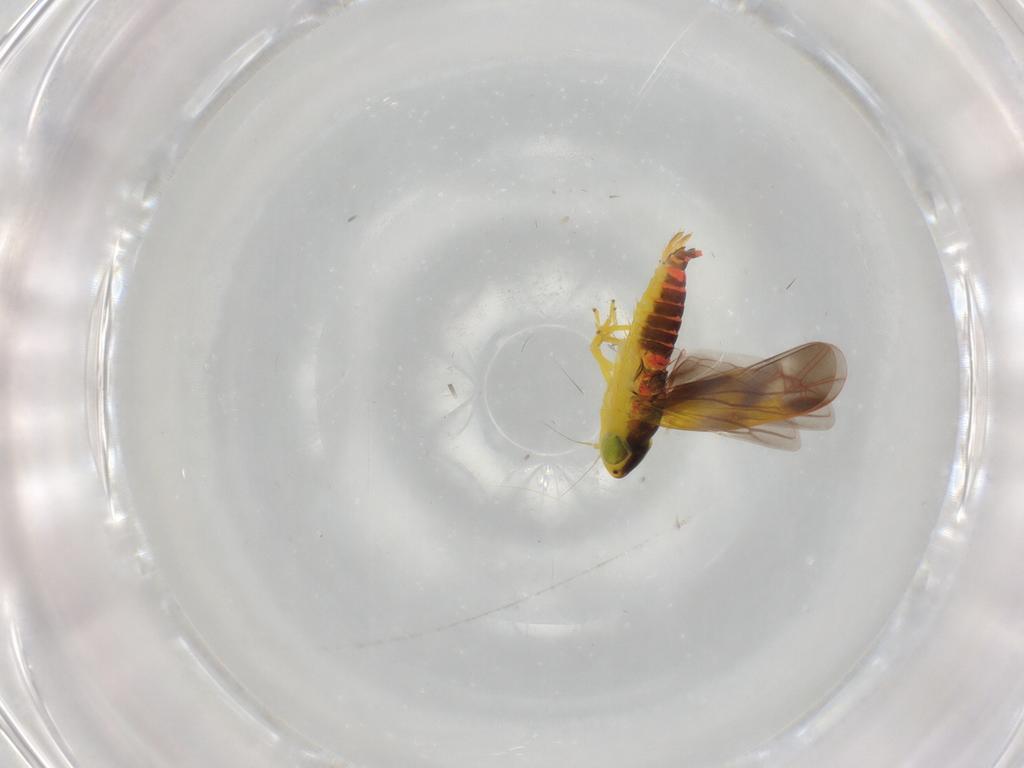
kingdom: Animalia
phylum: Arthropoda
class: Insecta
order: Hemiptera
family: Cicadellidae
